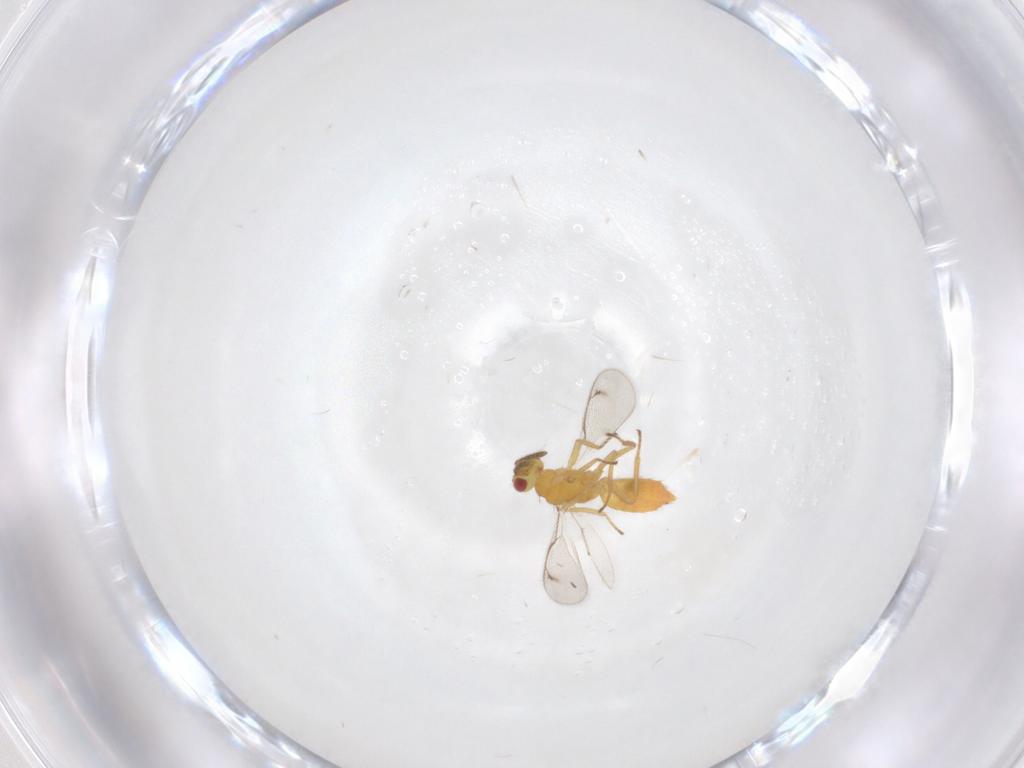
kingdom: Animalia
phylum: Arthropoda
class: Insecta
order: Hymenoptera
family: Eulophidae
